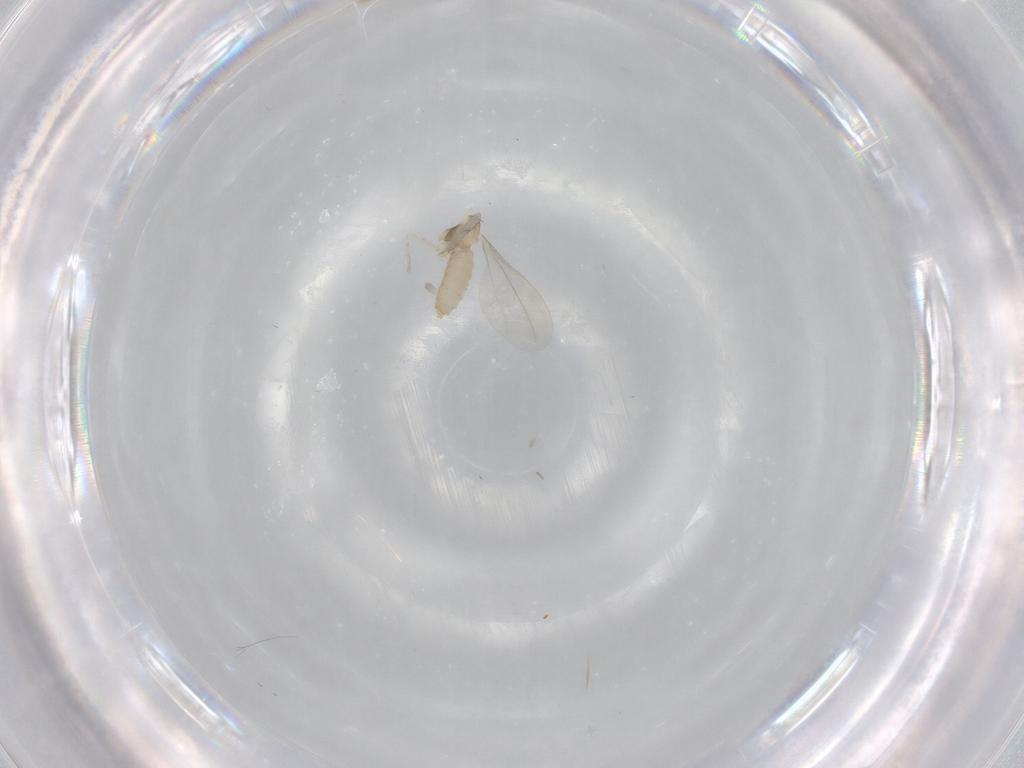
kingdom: Animalia
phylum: Arthropoda
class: Insecta
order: Diptera
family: Cecidomyiidae
